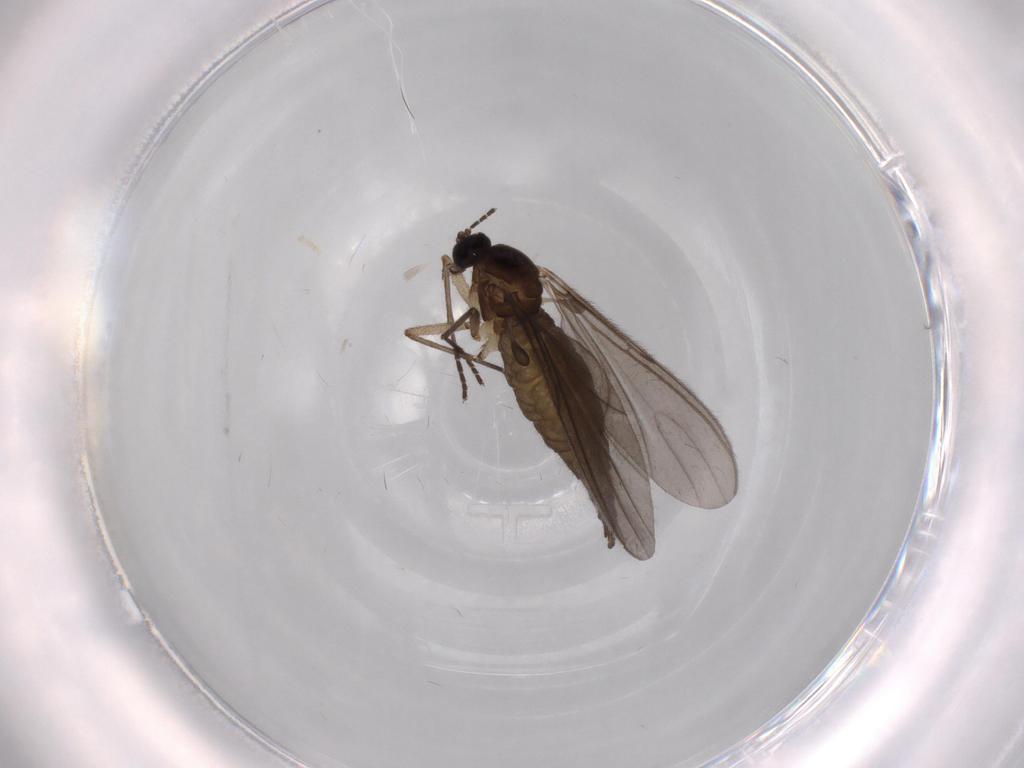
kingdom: Animalia
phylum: Arthropoda
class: Insecta
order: Diptera
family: Sciaridae
